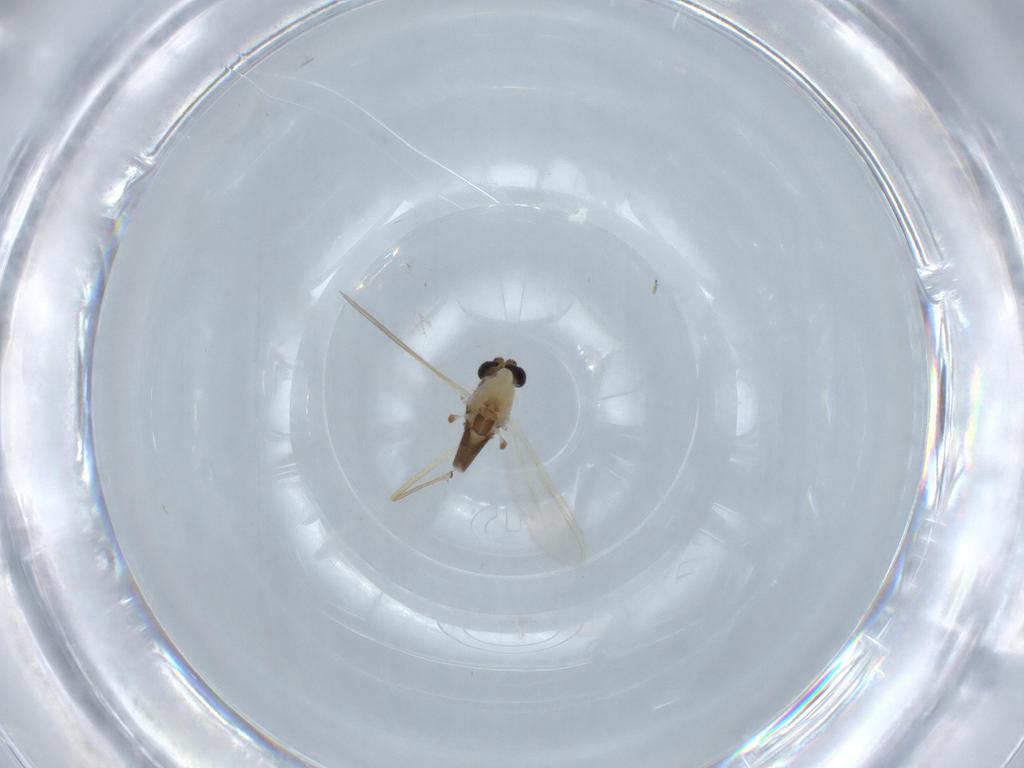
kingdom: Animalia
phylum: Arthropoda
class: Insecta
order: Diptera
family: Chironomidae
